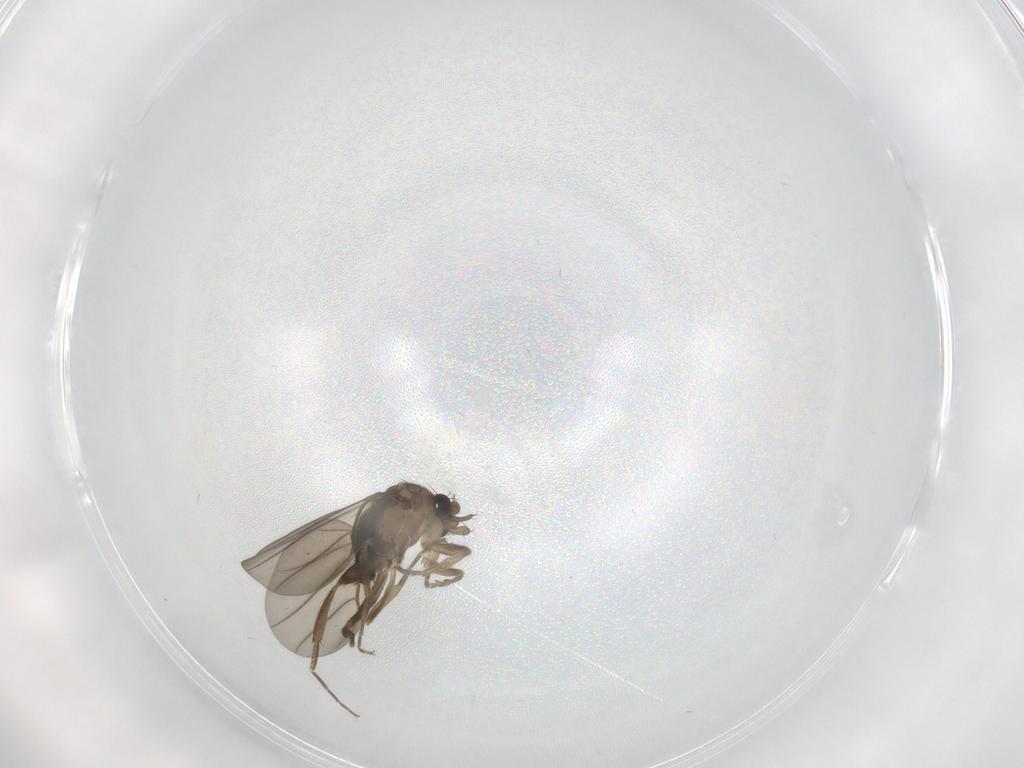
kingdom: Animalia
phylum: Arthropoda
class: Insecta
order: Diptera
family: Phoridae
